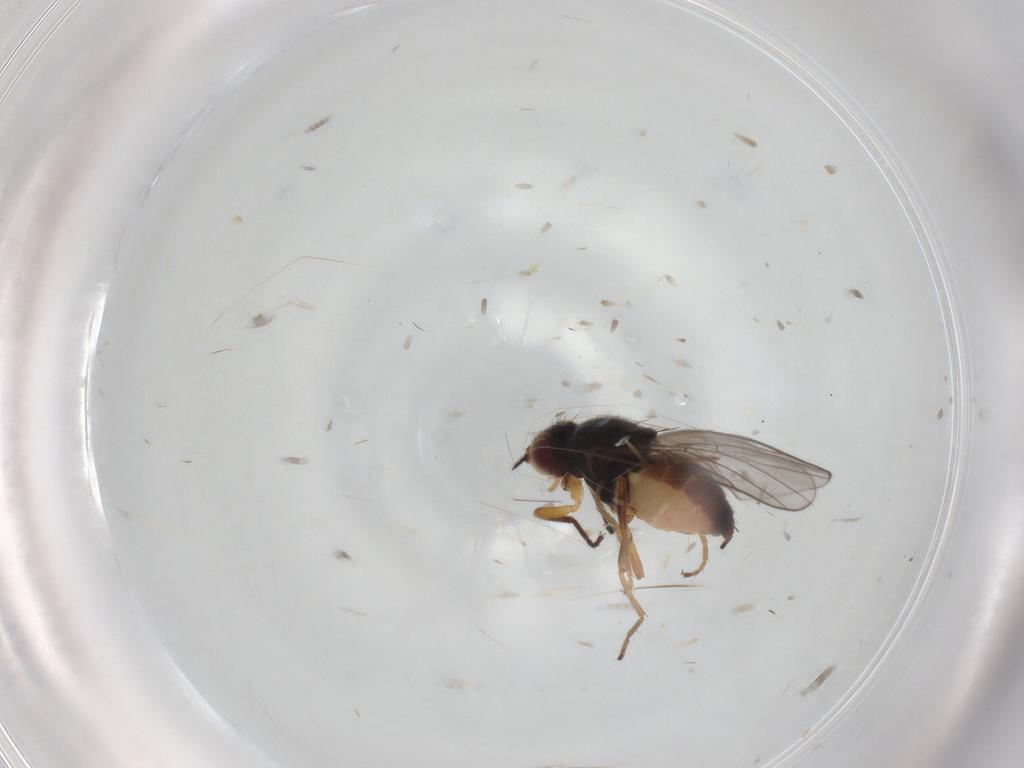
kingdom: Animalia
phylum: Arthropoda
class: Insecta
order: Diptera
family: Chloropidae
